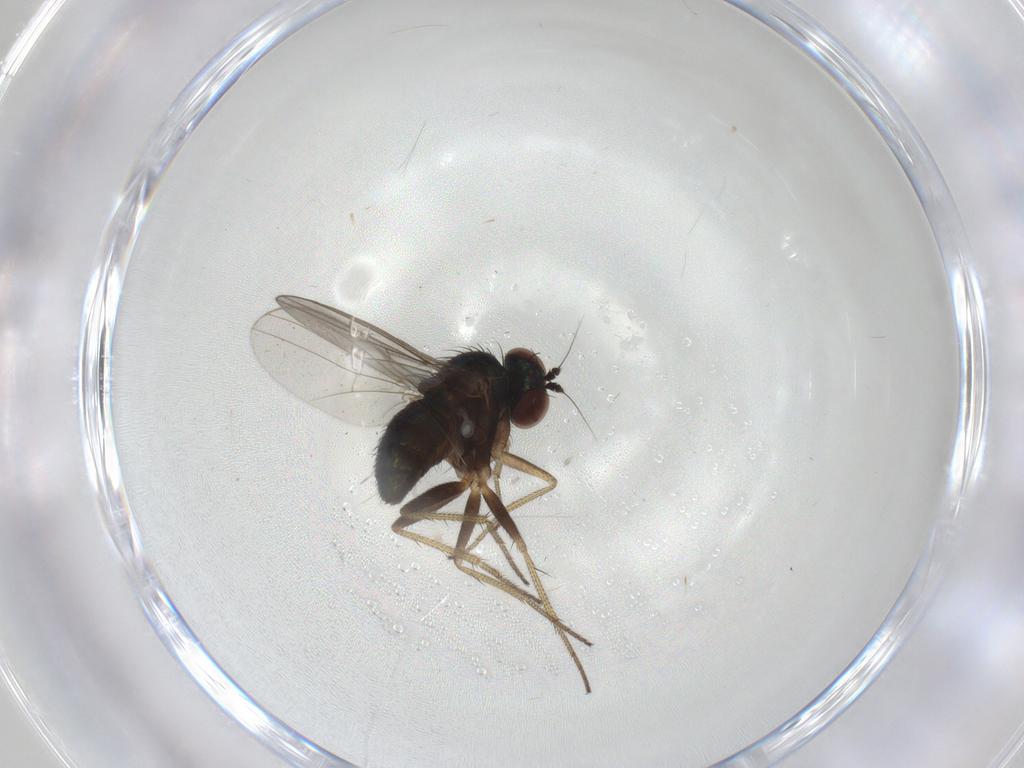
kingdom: Animalia
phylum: Arthropoda
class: Insecta
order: Diptera
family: Dolichopodidae
